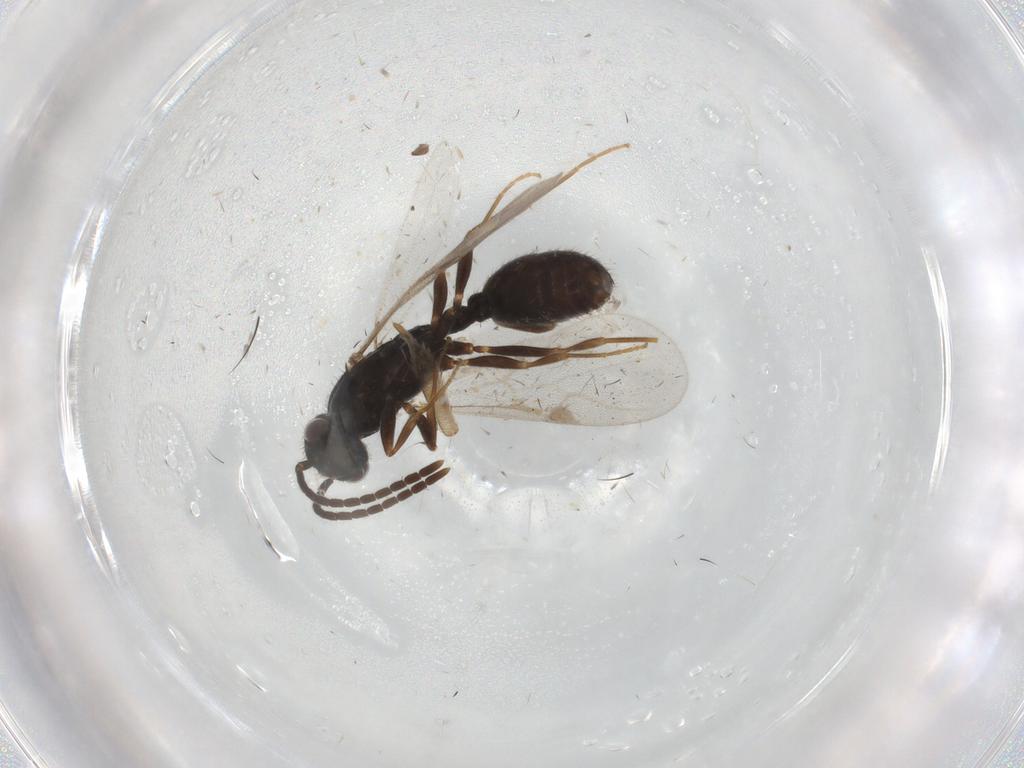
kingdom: Animalia
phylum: Arthropoda
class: Insecta
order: Hymenoptera
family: Formicidae
